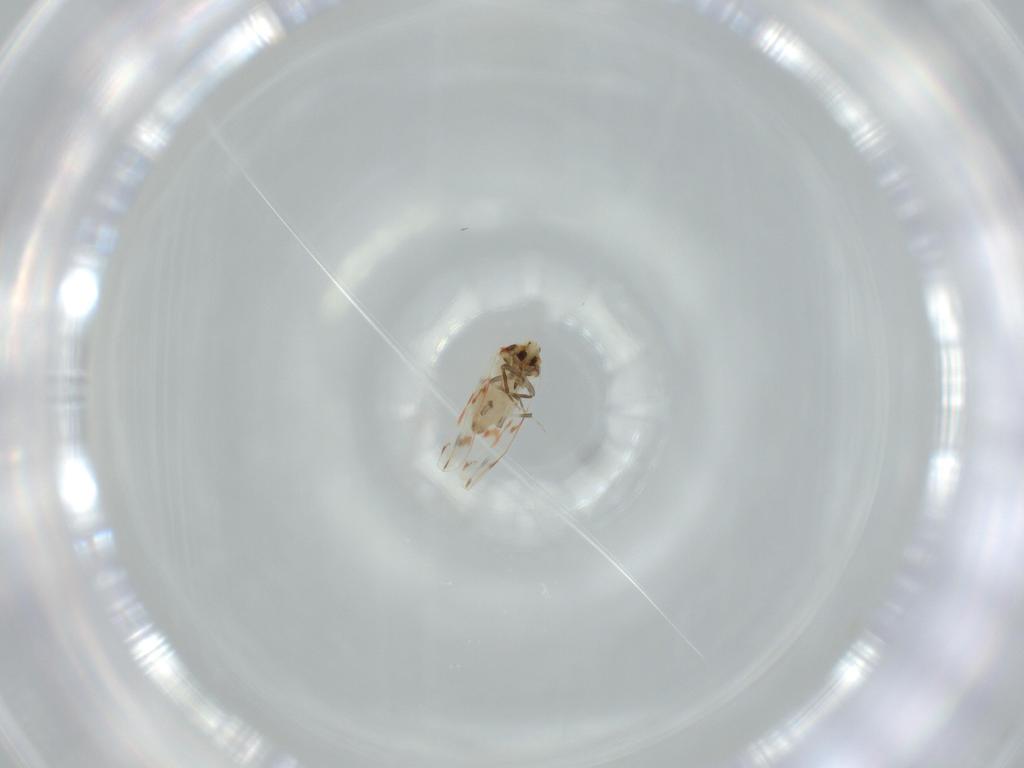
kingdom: Animalia
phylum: Arthropoda
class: Insecta
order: Hemiptera
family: Aleyrodidae
